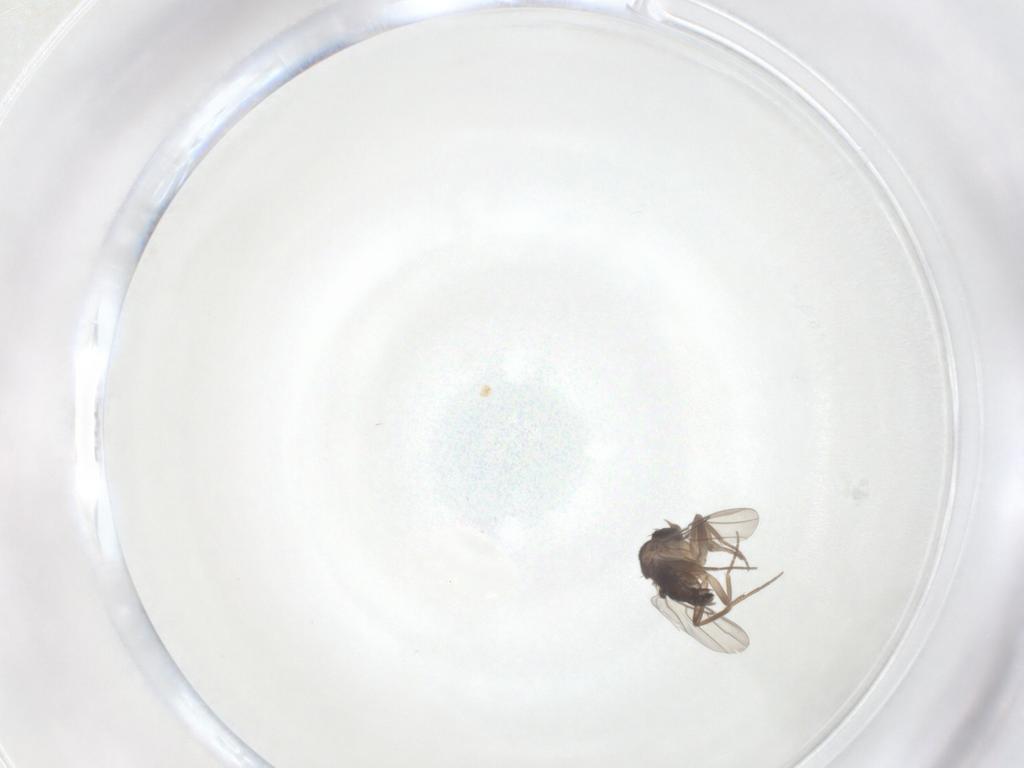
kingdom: Animalia
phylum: Arthropoda
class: Insecta
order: Diptera
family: Phoridae
